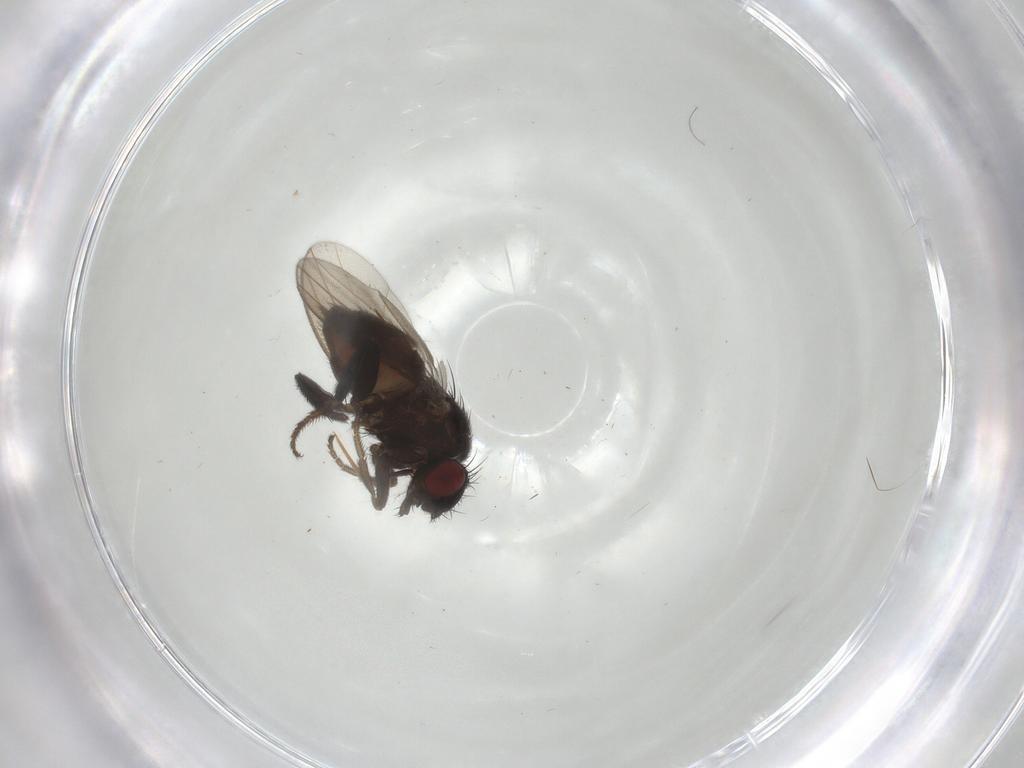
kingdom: Animalia
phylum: Arthropoda
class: Insecta
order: Diptera
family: Milichiidae
